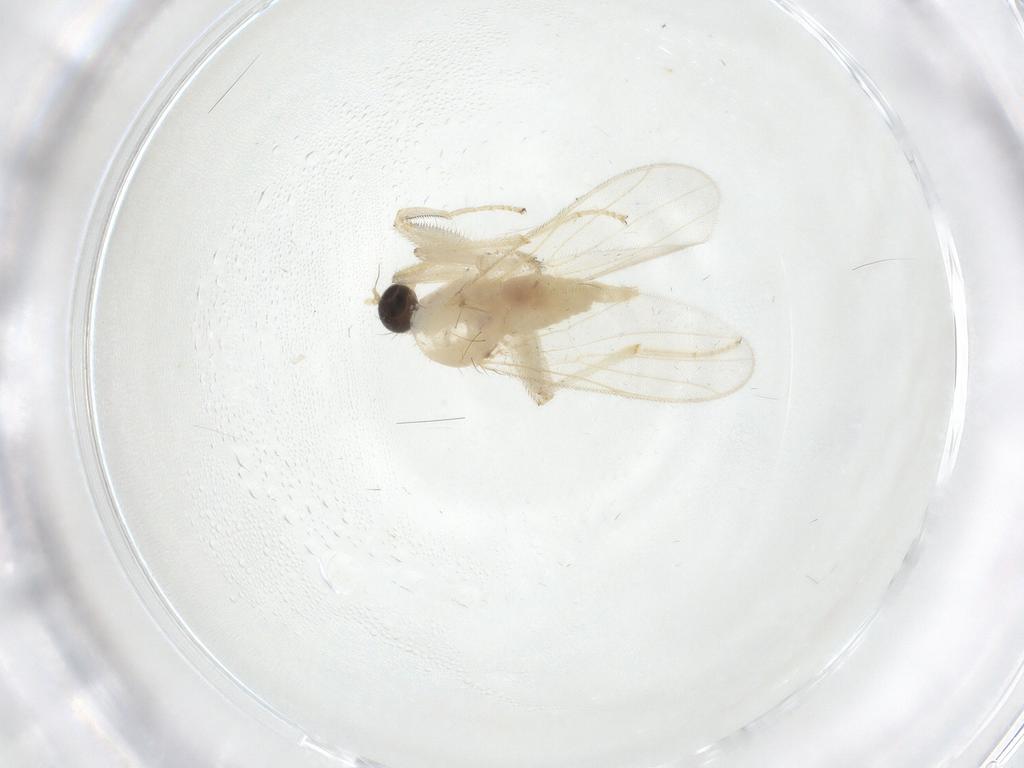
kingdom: Animalia
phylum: Arthropoda
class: Insecta
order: Diptera
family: Hybotidae
